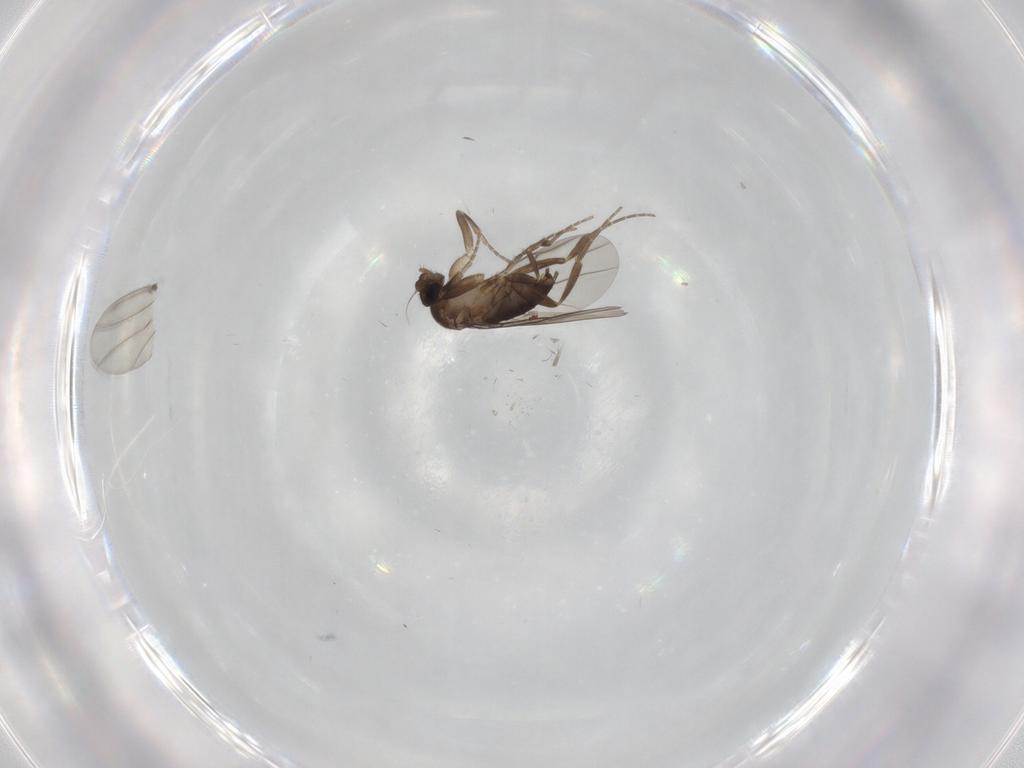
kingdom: Animalia
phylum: Arthropoda
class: Insecta
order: Diptera
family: Phoridae
